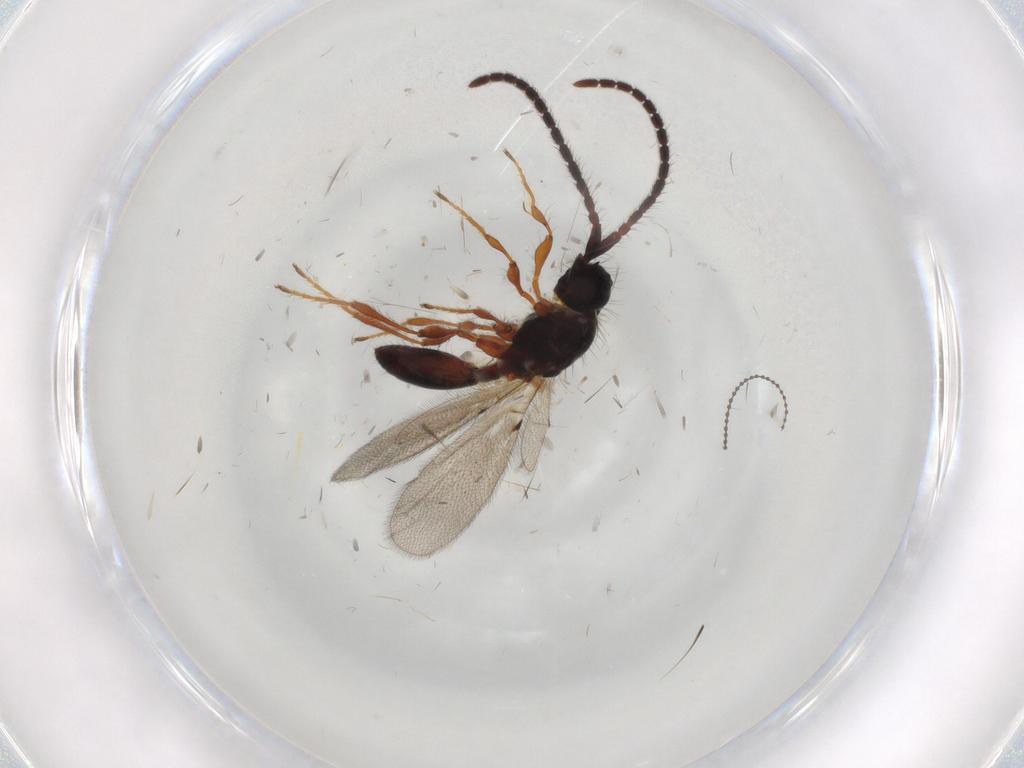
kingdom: Animalia
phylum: Arthropoda
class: Insecta
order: Hymenoptera
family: Diapriidae
